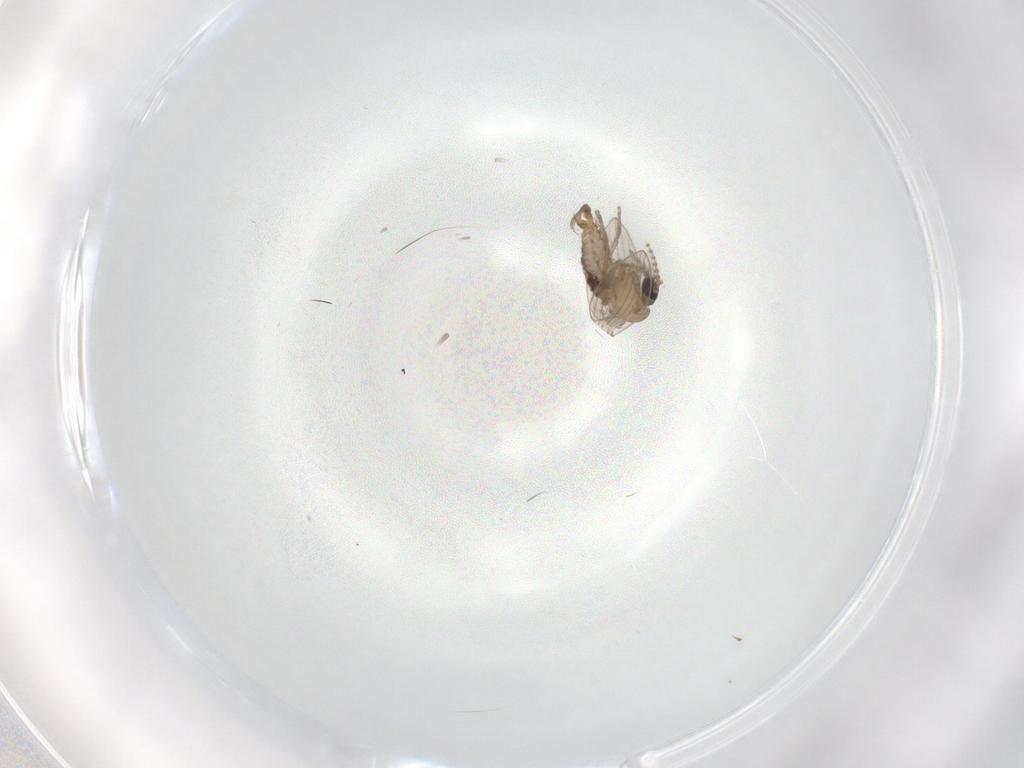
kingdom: Animalia
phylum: Arthropoda
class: Insecta
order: Diptera
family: Psychodidae
